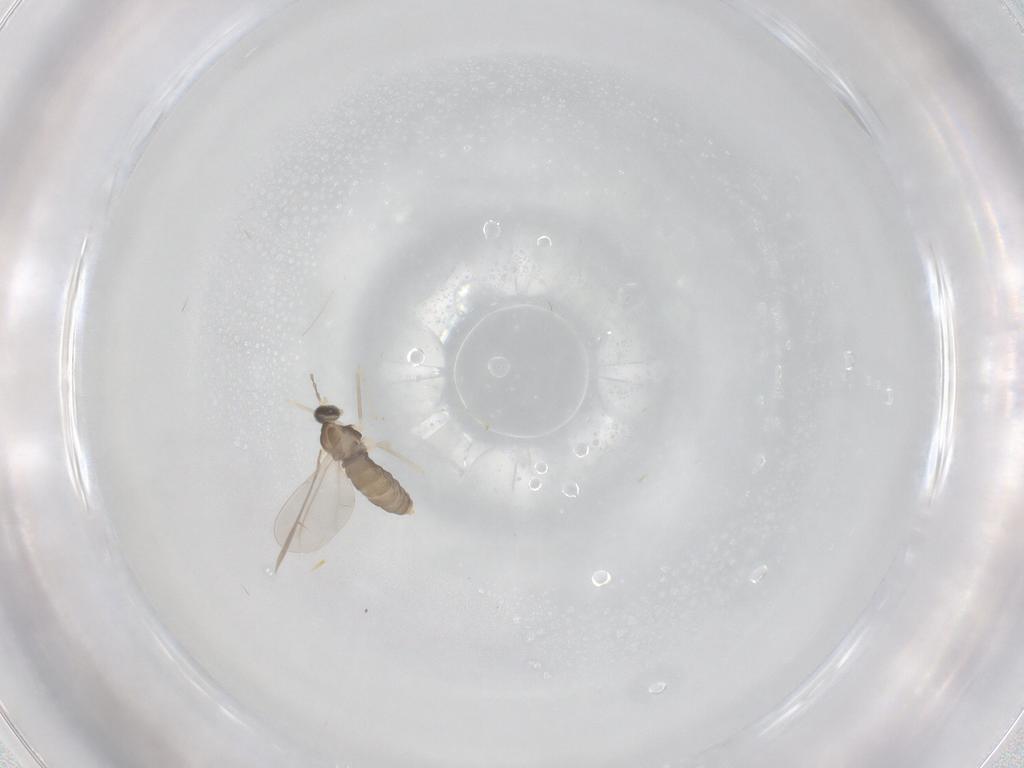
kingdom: Animalia
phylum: Arthropoda
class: Insecta
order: Diptera
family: Cecidomyiidae
